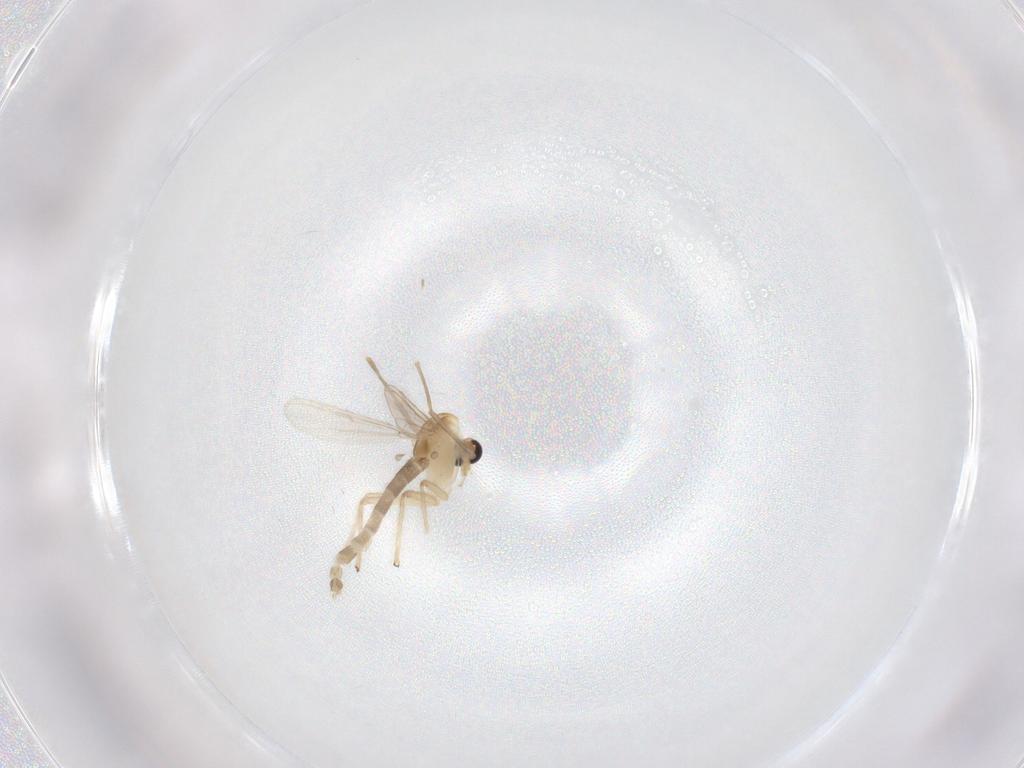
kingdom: Animalia
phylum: Arthropoda
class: Insecta
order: Diptera
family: Chironomidae
